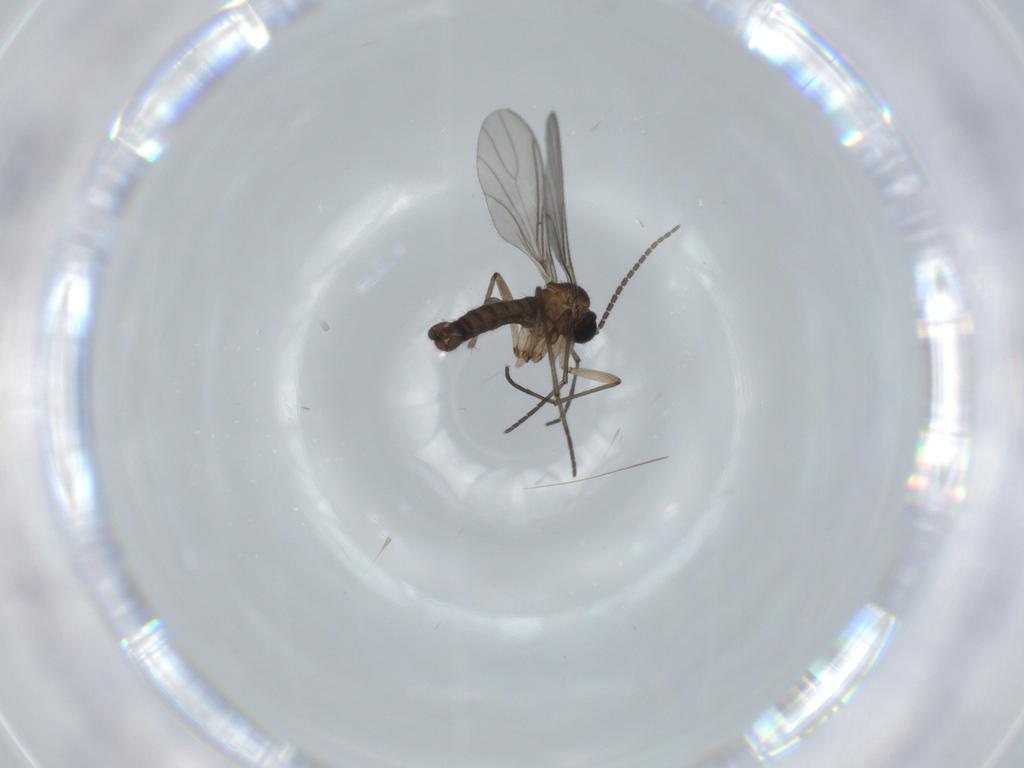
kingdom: Animalia
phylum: Arthropoda
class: Insecta
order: Diptera
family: Sciaridae
